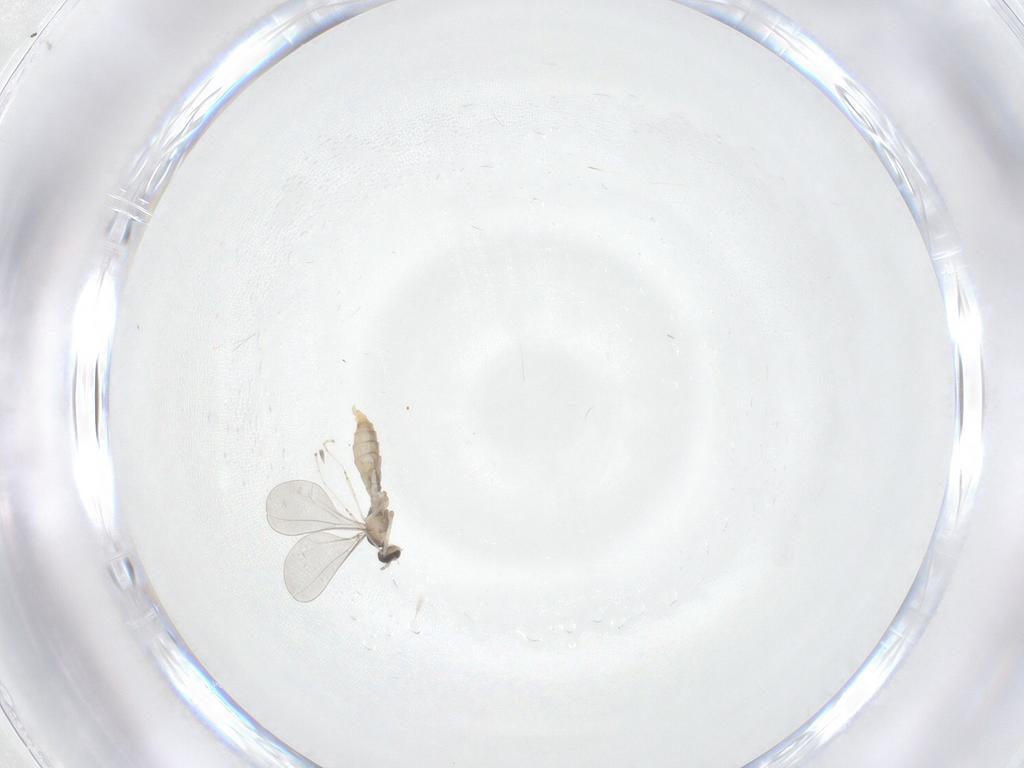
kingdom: Animalia
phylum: Arthropoda
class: Insecta
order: Diptera
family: Cecidomyiidae
